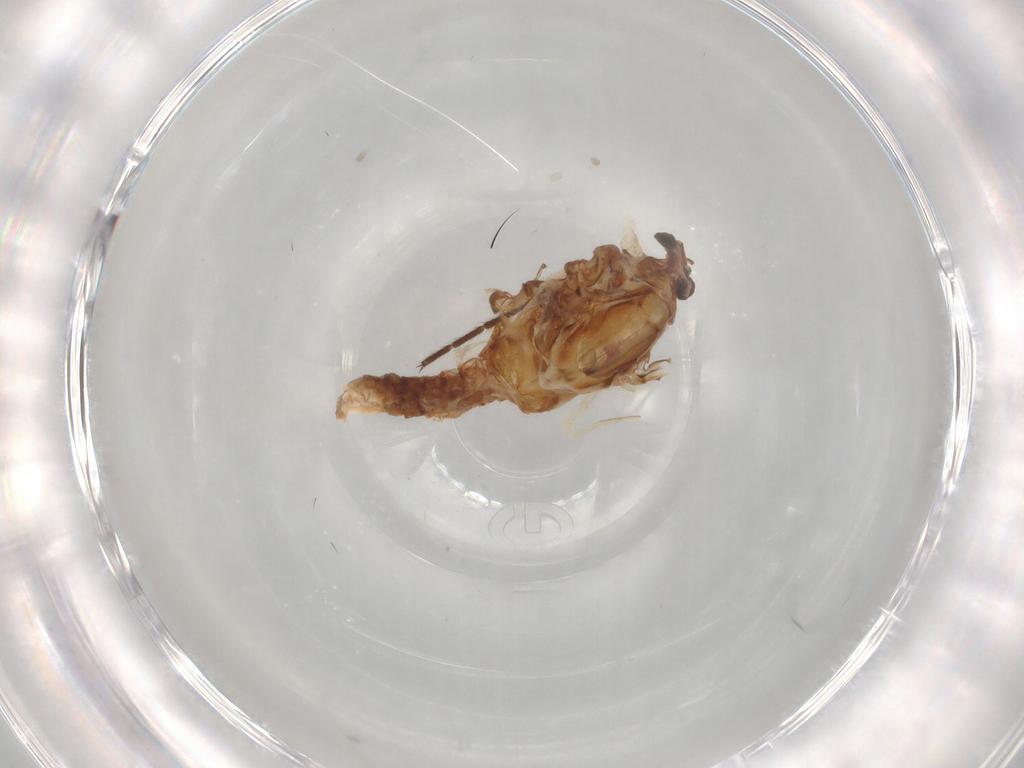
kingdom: Animalia
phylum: Arthropoda
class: Insecta
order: Diptera
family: Phoridae
